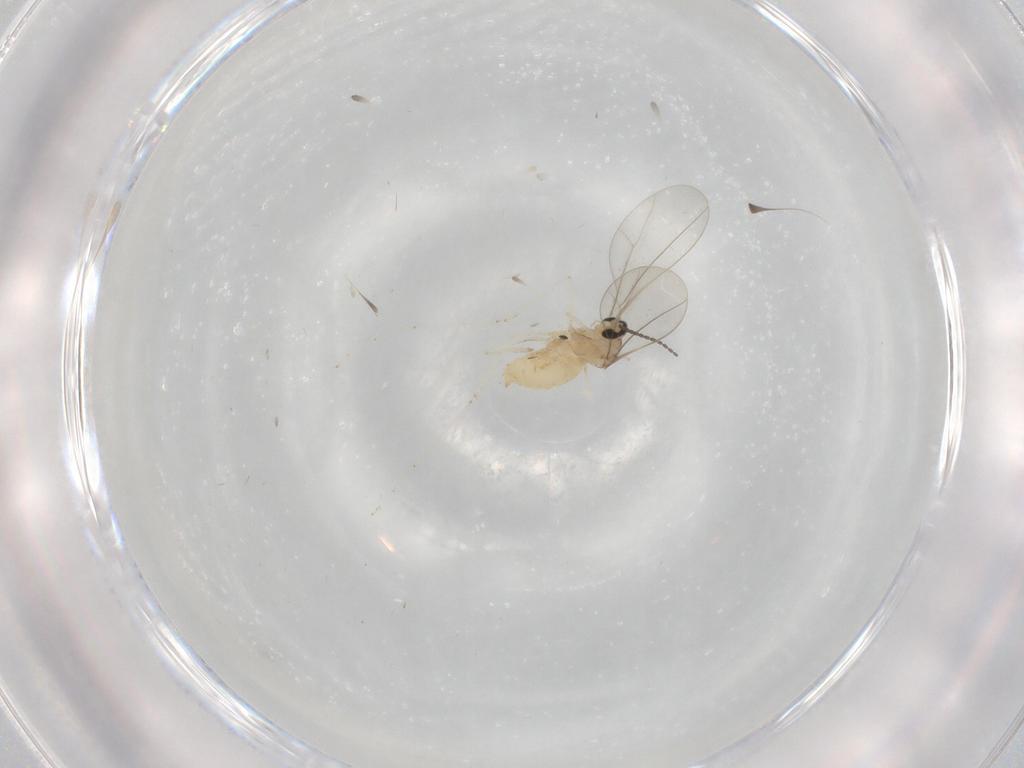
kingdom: Animalia
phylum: Arthropoda
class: Insecta
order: Diptera
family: Cecidomyiidae
